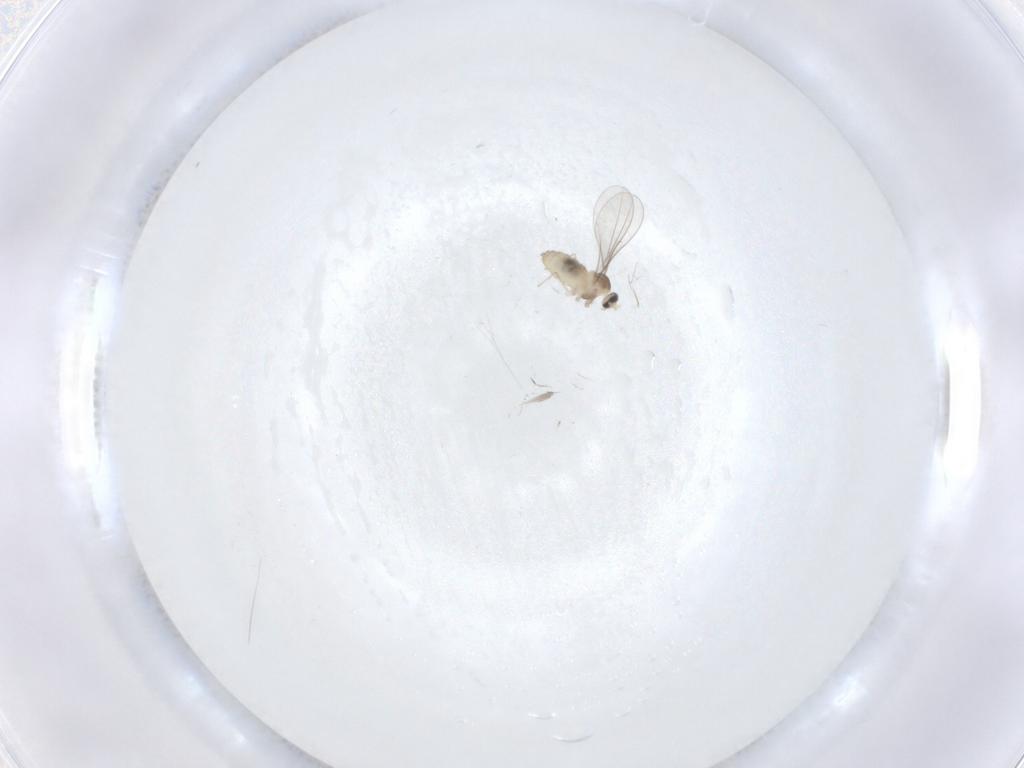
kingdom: Animalia
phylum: Arthropoda
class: Insecta
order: Diptera
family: Cecidomyiidae
